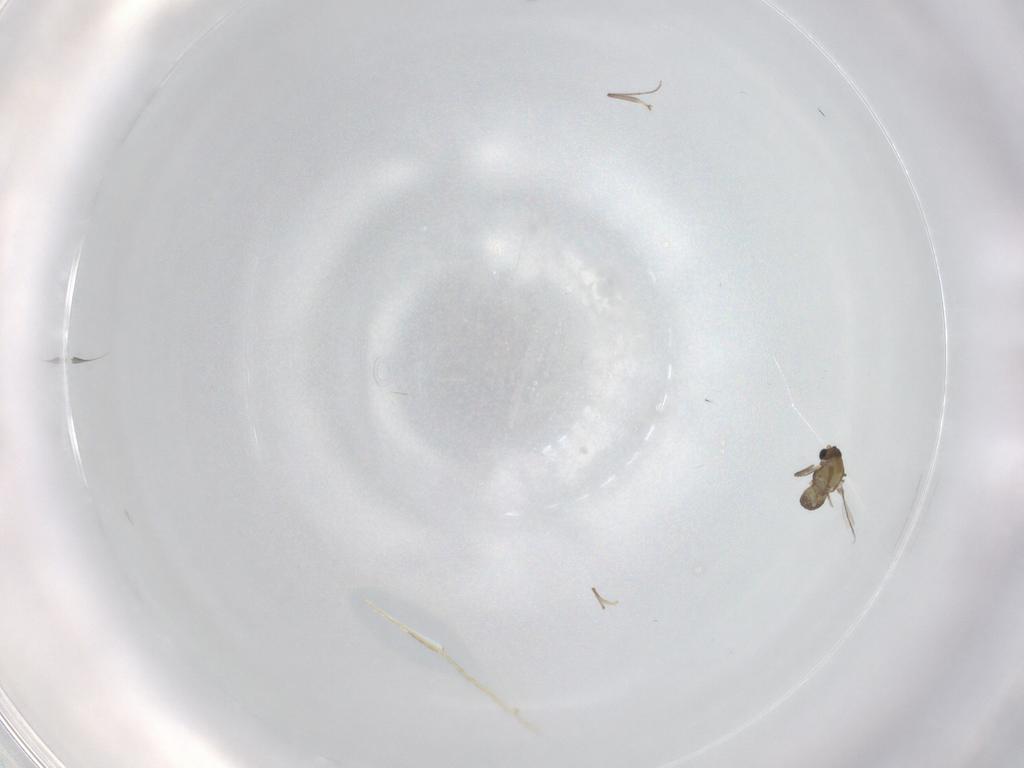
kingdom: Animalia
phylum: Arthropoda
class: Insecta
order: Diptera
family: Chironomidae
